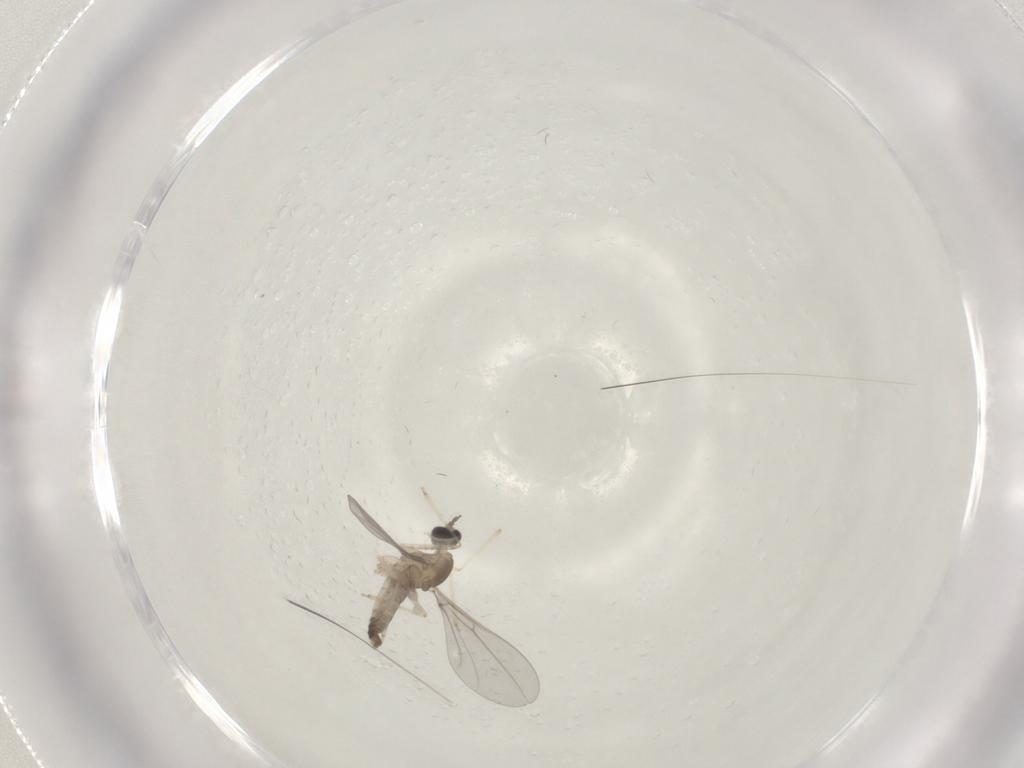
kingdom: Animalia
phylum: Arthropoda
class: Insecta
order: Diptera
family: Cecidomyiidae
